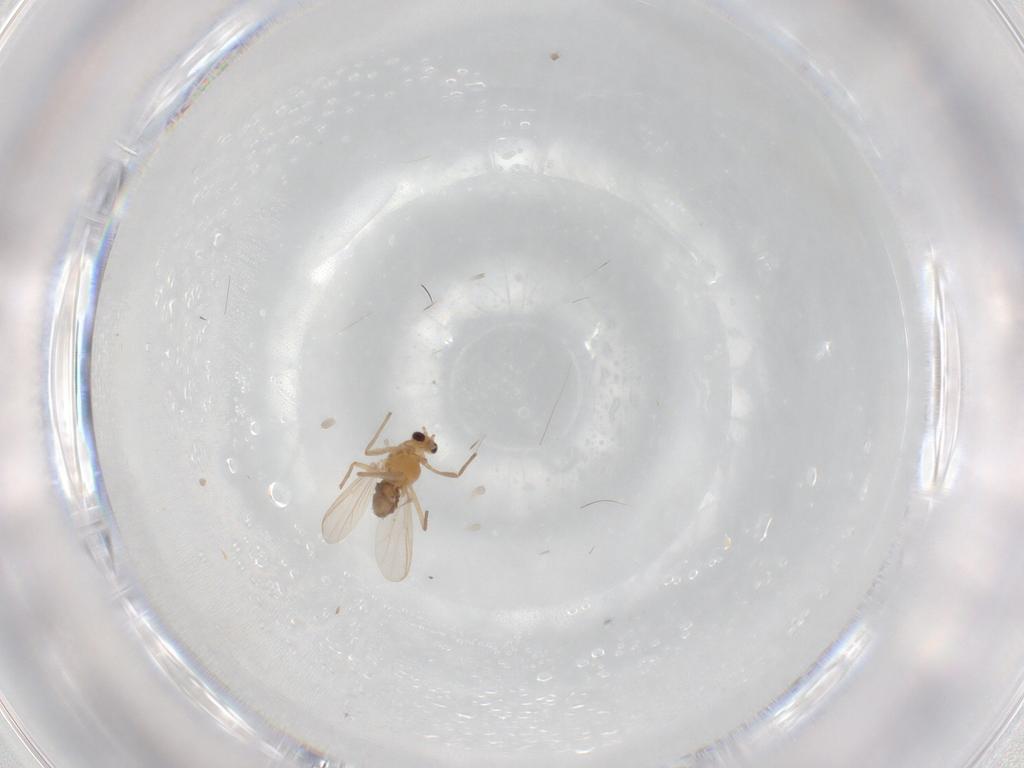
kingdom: Animalia
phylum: Arthropoda
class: Insecta
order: Diptera
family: Chironomidae
